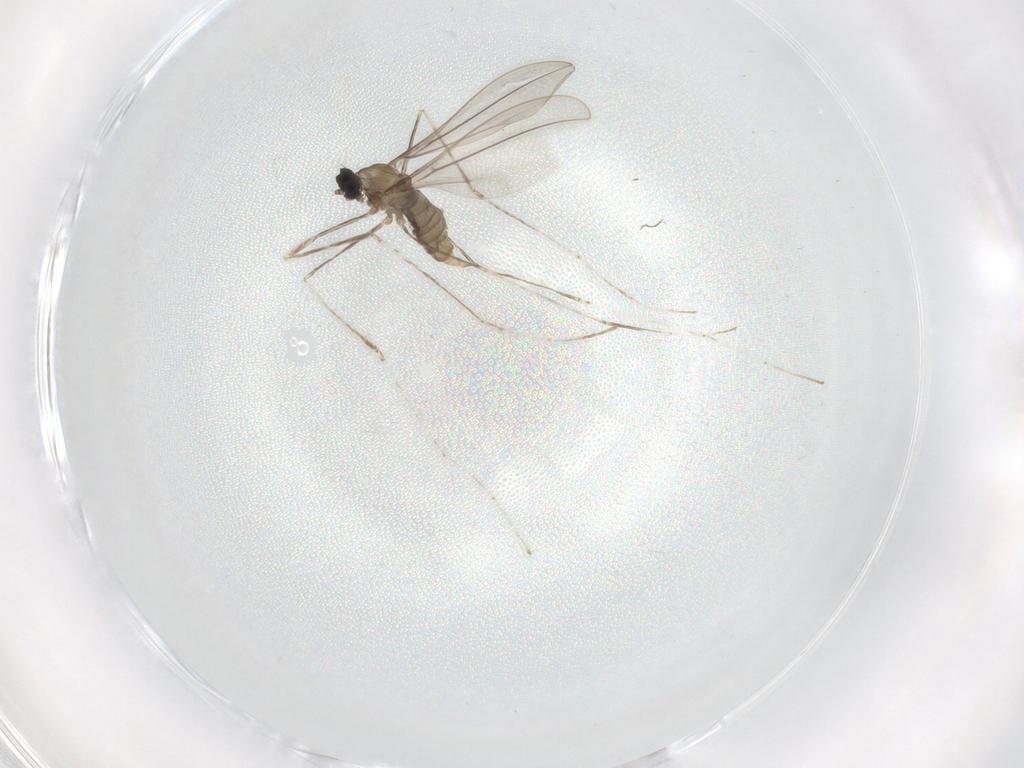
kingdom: Animalia
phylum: Arthropoda
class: Insecta
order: Diptera
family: Cecidomyiidae
